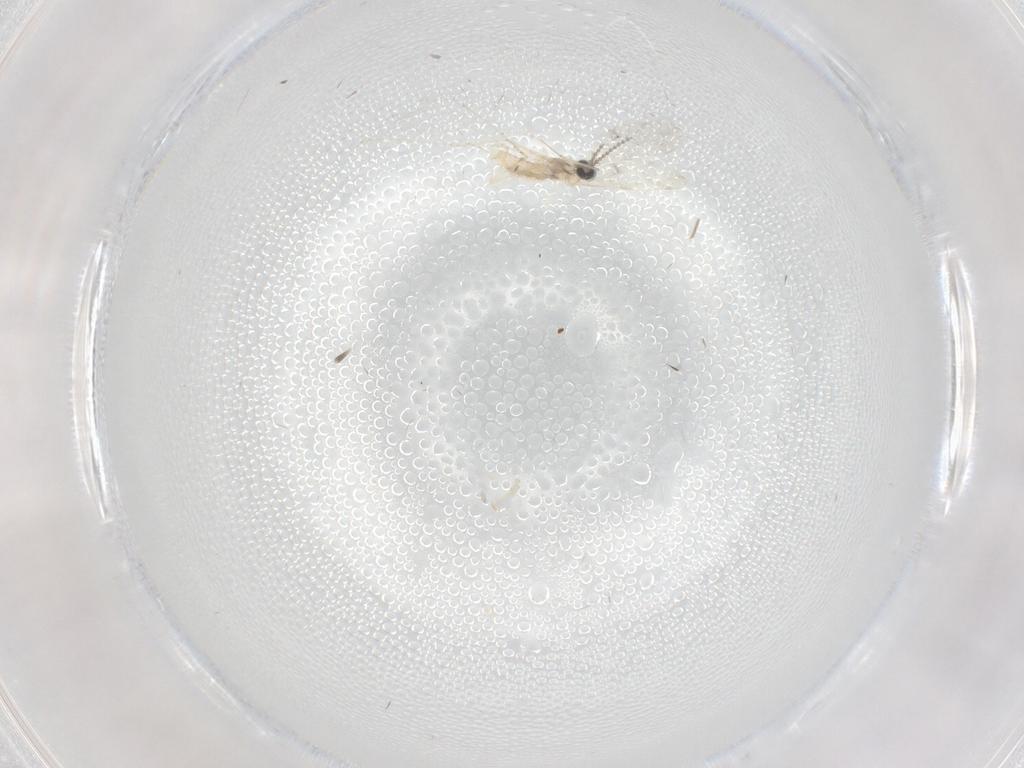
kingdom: Animalia
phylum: Arthropoda
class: Insecta
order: Diptera
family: Cecidomyiidae
